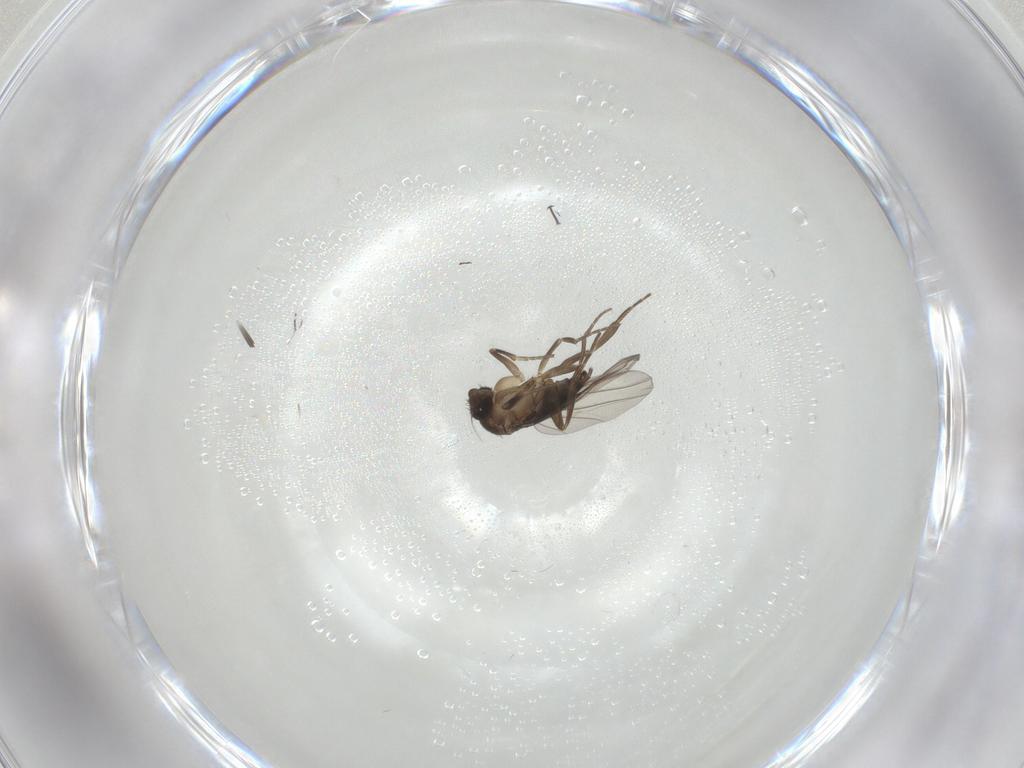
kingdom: Animalia
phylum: Arthropoda
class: Insecta
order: Diptera
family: Phoridae
